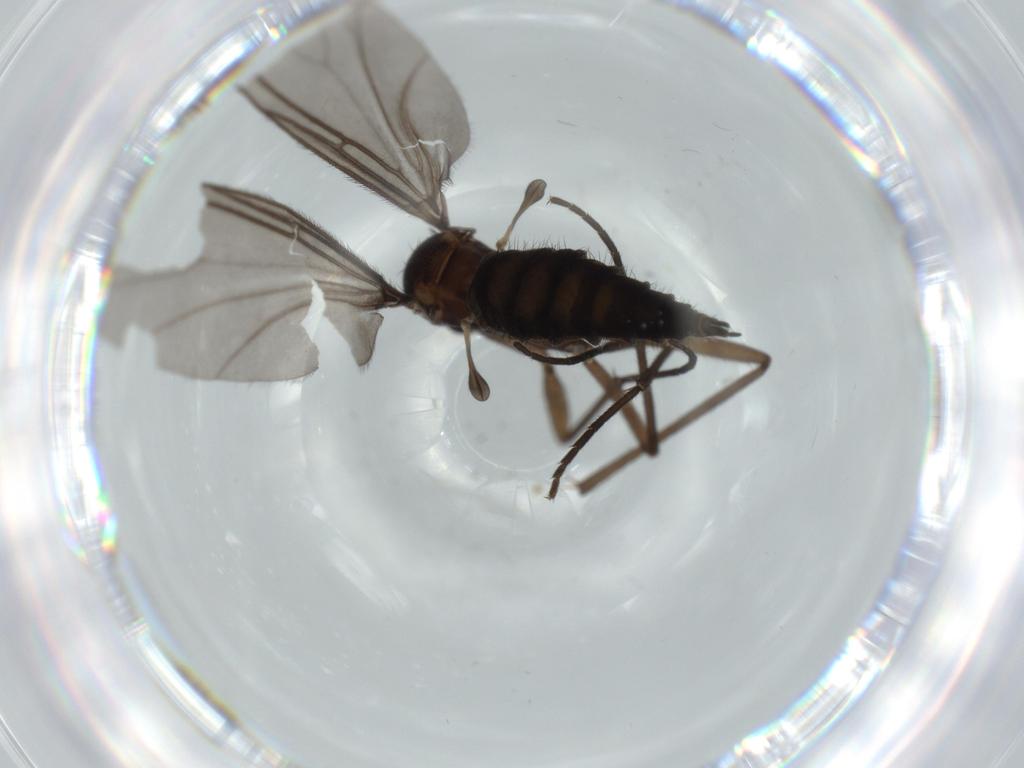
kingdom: Animalia
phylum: Arthropoda
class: Insecta
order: Diptera
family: Sciaridae
